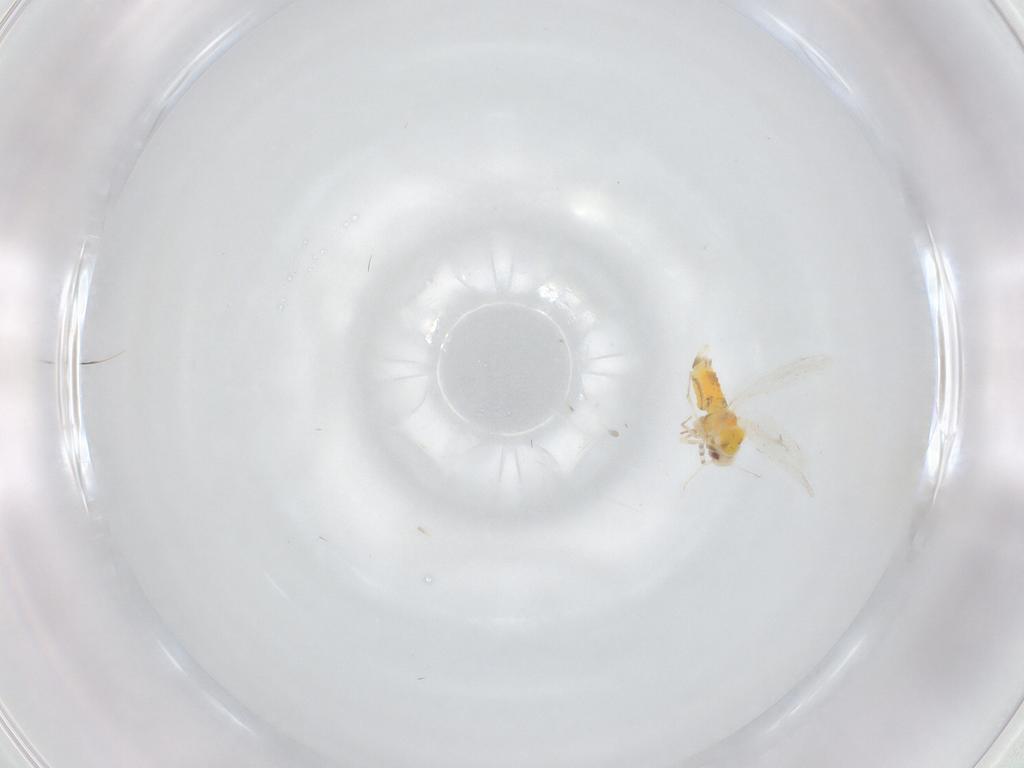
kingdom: Animalia
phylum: Arthropoda
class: Insecta
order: Hemiptera
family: Aleyrodidae
